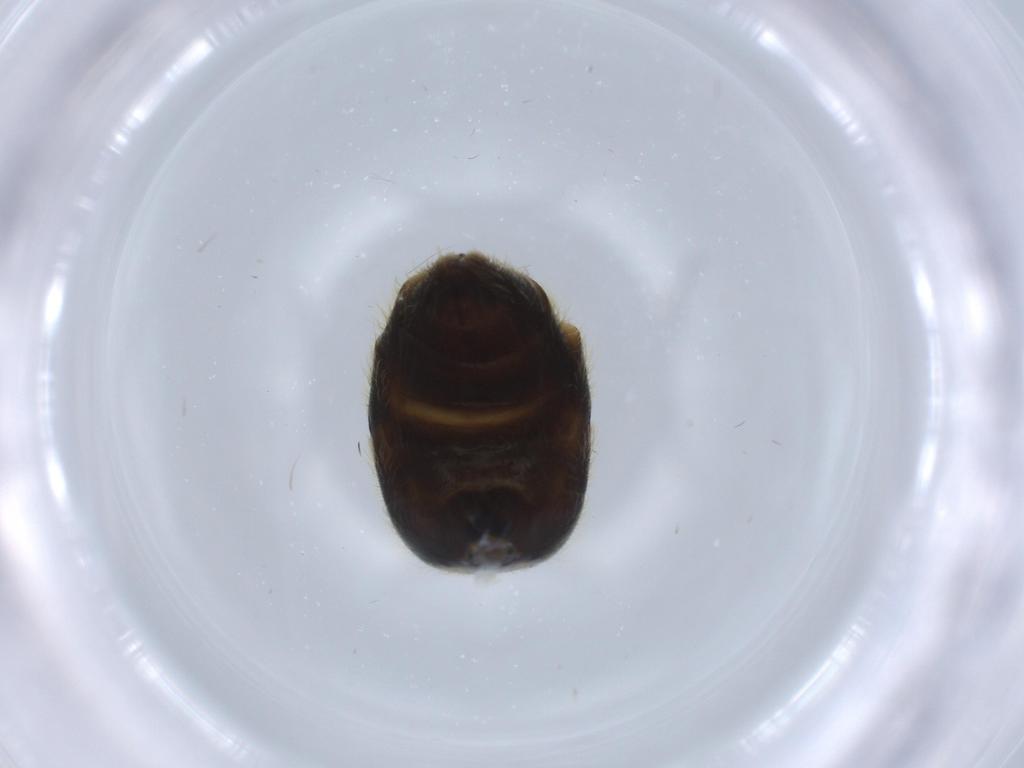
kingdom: Animalia
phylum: Arthropoda
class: Insecta
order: Hymenoptera
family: Halictidae
